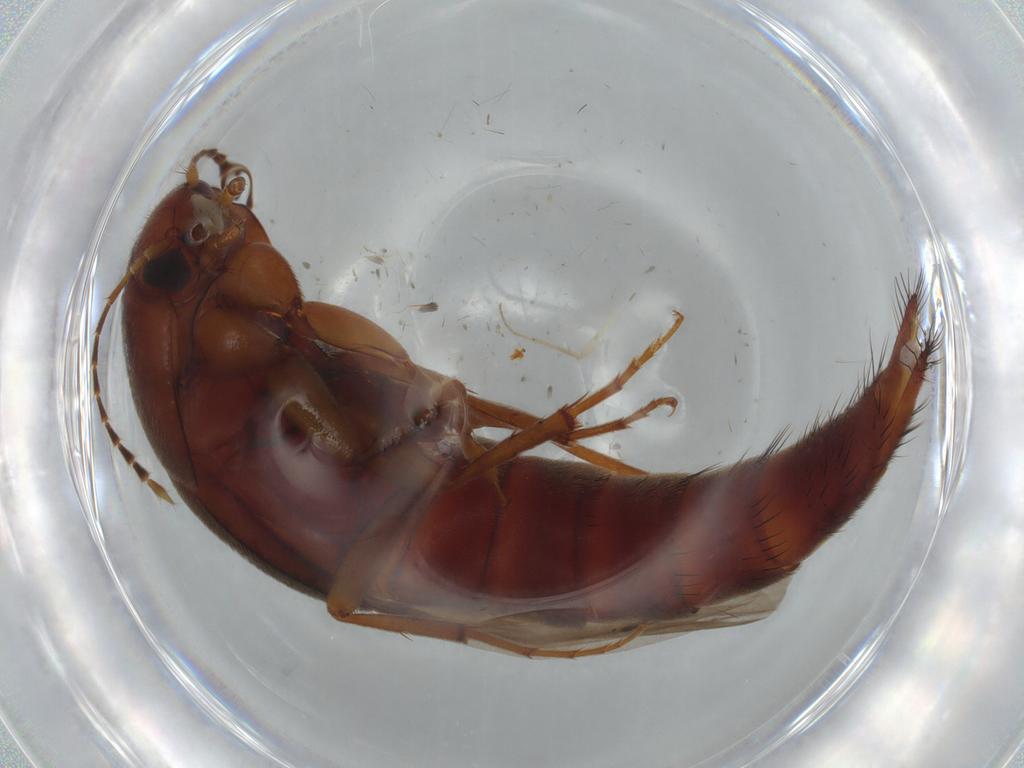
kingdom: Animalia
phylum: Arthropoda
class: Insecta
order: Coleoptera
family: Staphylinidae
